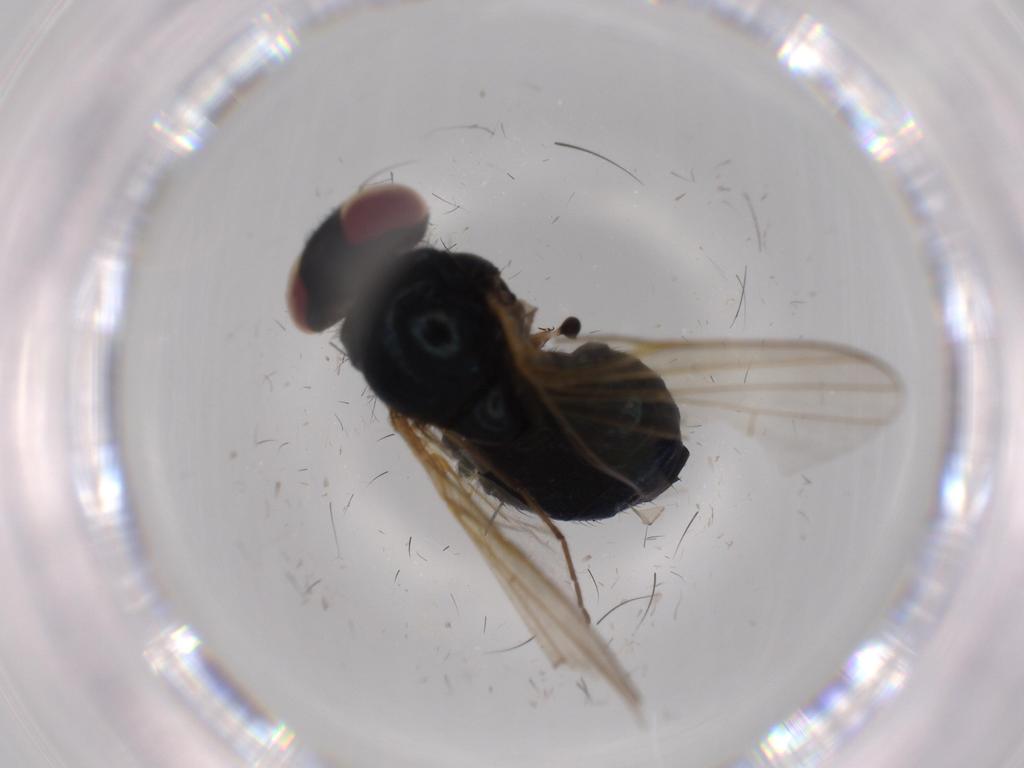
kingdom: Animalia
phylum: Arthropoda
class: Insecta
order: Diptera
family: Lonchaeidae
